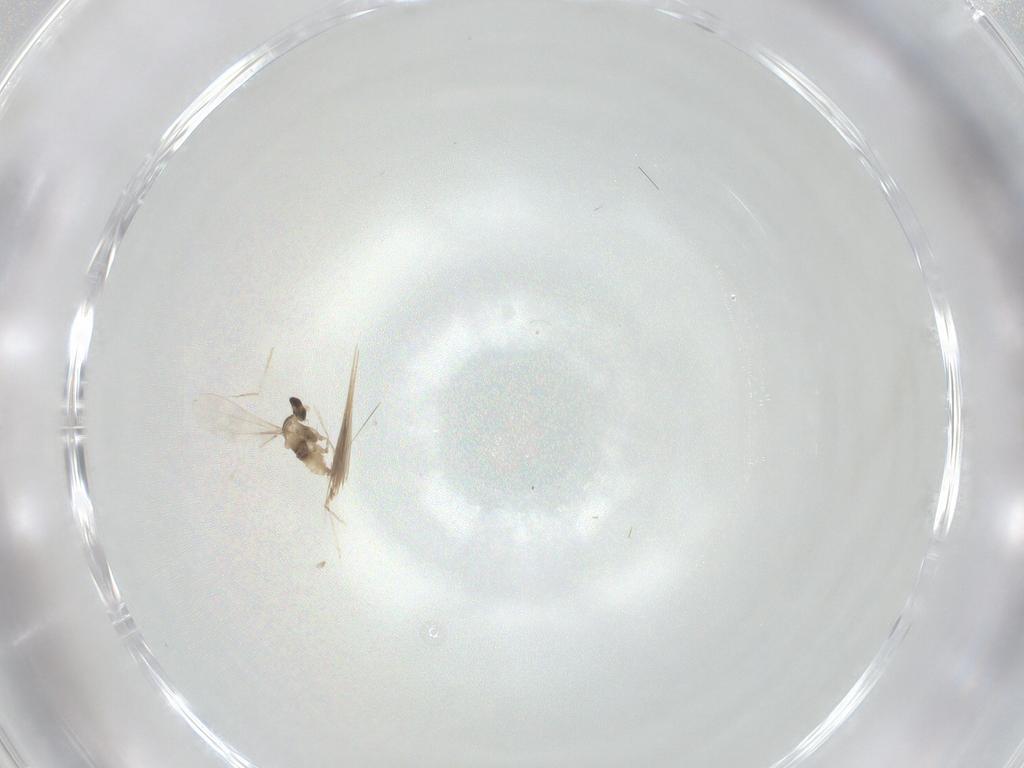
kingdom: Animalia
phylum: Arthropoda
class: Insecta
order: Diptera
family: Cecidomyiidae
